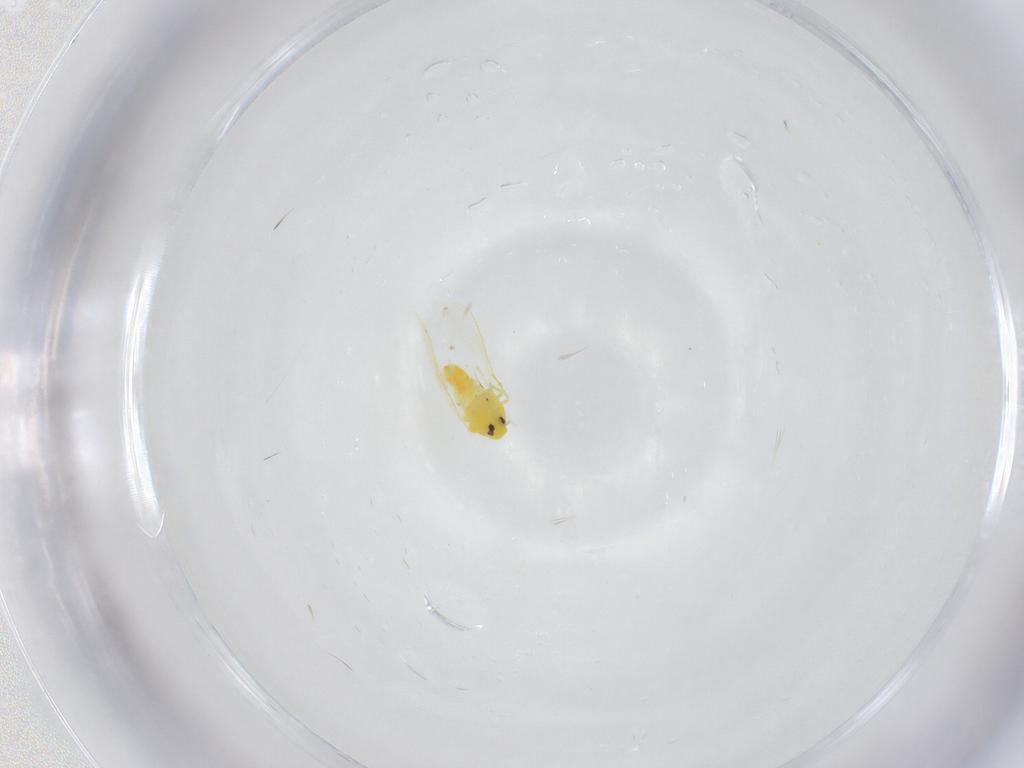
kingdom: Animalia
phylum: Arthropoda
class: Insecta
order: Hemiptera
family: Aleyrodidae
